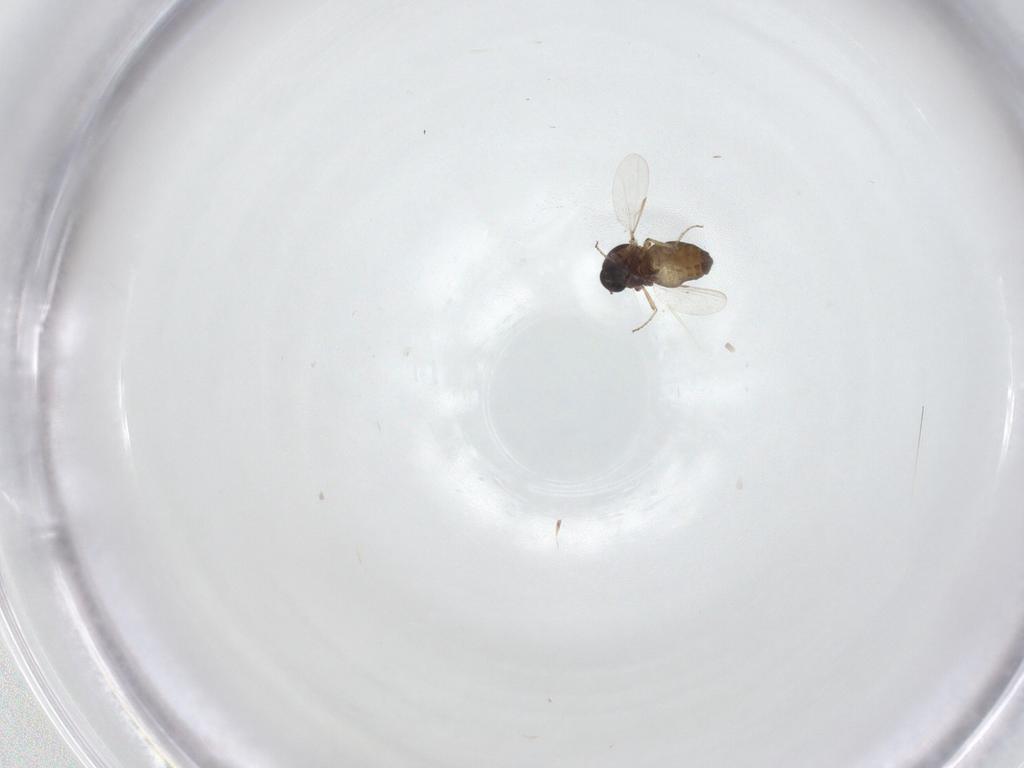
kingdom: Animalia
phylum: Arthropoda
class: Insecta
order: Diptera
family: Ceratopogonidae
